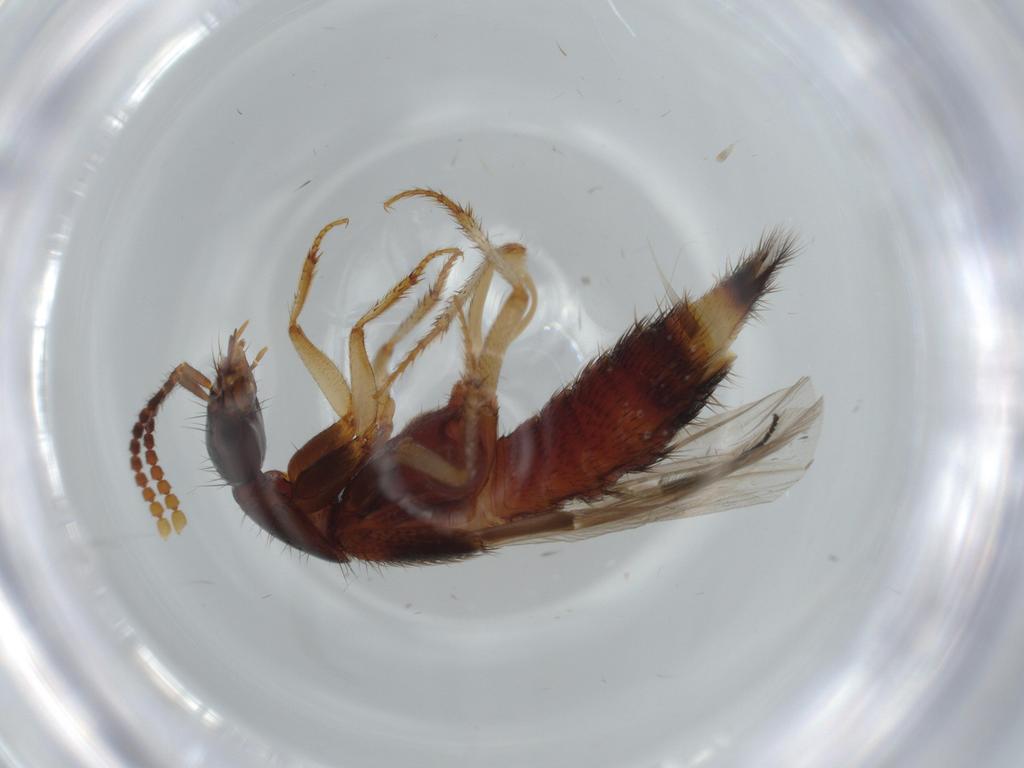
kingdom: Animalia
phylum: Arthropoda
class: Insecta
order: Coleoptera
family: Staphylinidae
